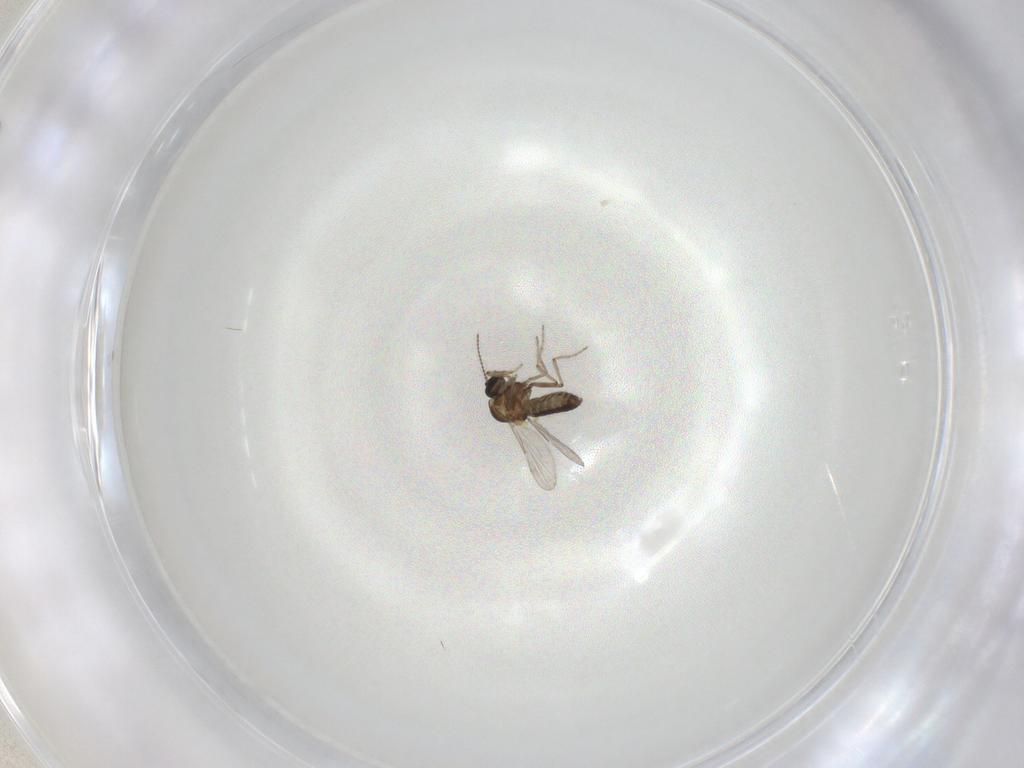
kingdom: Animalia
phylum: Arthropoda
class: Insecta
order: Diptera
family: Ceratopogonidae
